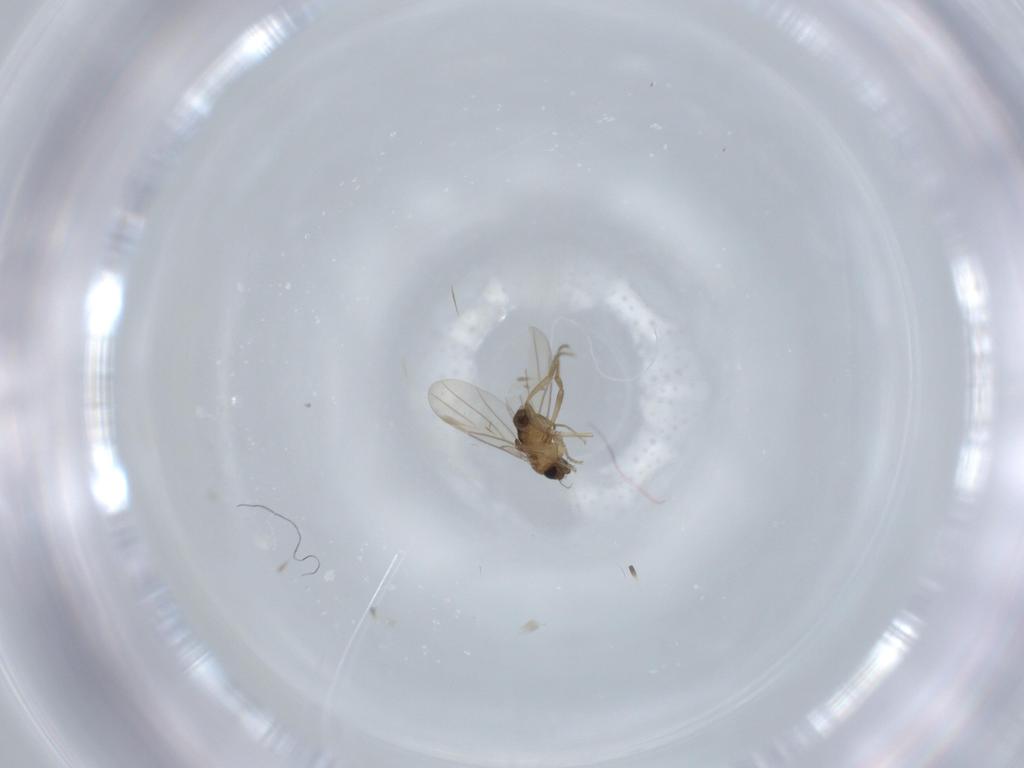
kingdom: Animalia
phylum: Arthropoda
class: Insecta
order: Diptera
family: Phoridae
